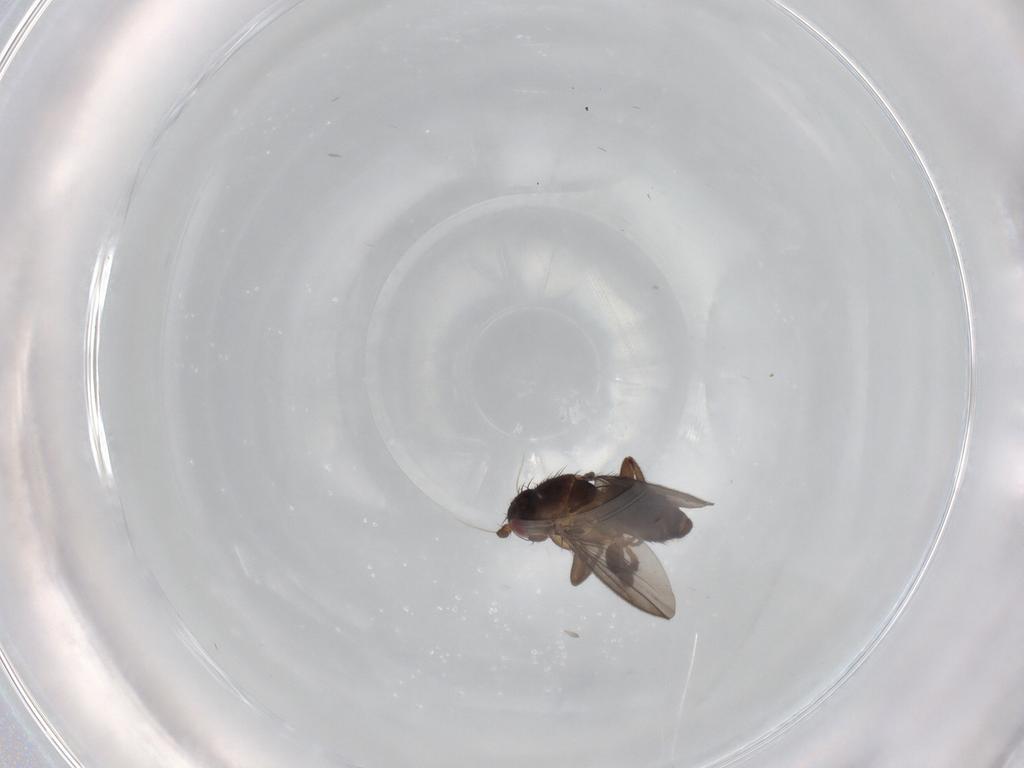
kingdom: Animalia
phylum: Arthropoda
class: Insecta
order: Diptera
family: Sphaeroceridae
